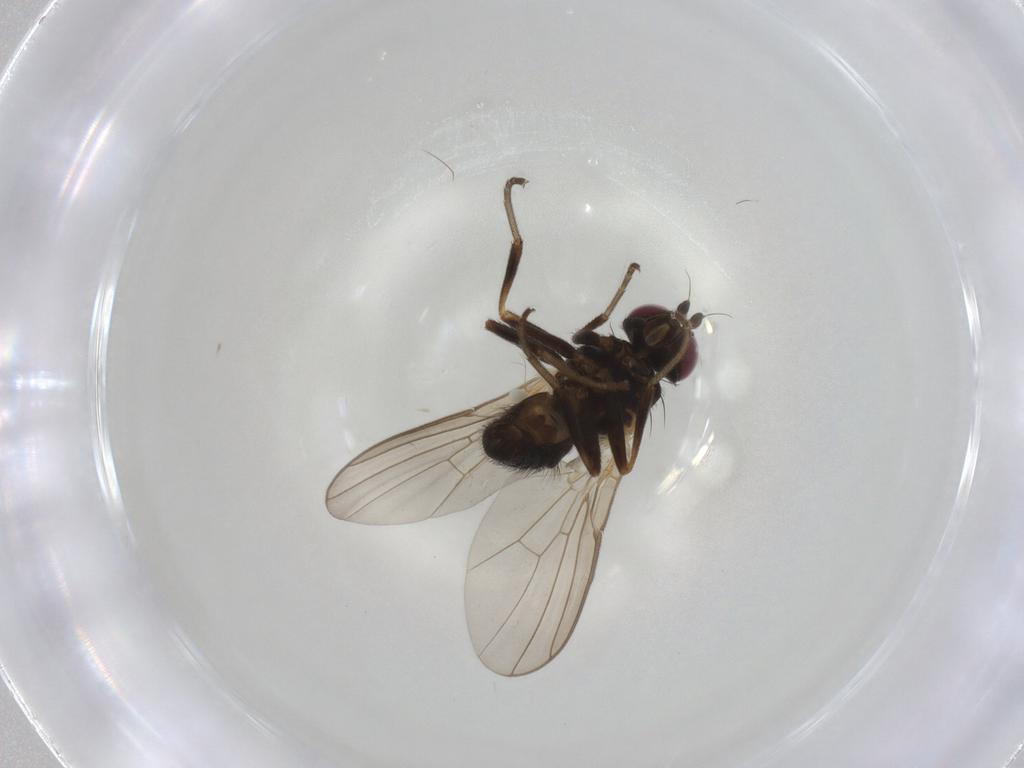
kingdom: Animalia
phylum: Arthropoda
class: Insecta
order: Diptera
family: Agromyzidae
